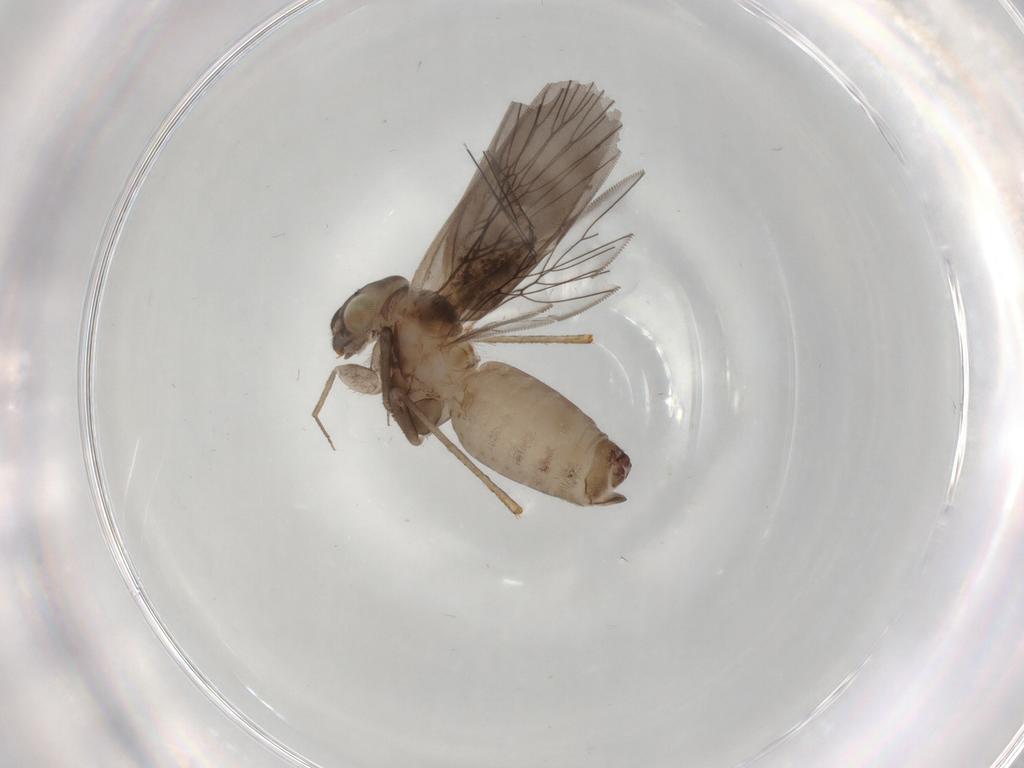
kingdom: Animalia
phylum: Arthropoda
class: Insecta
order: Psocodea
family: Lepidopsocidae
